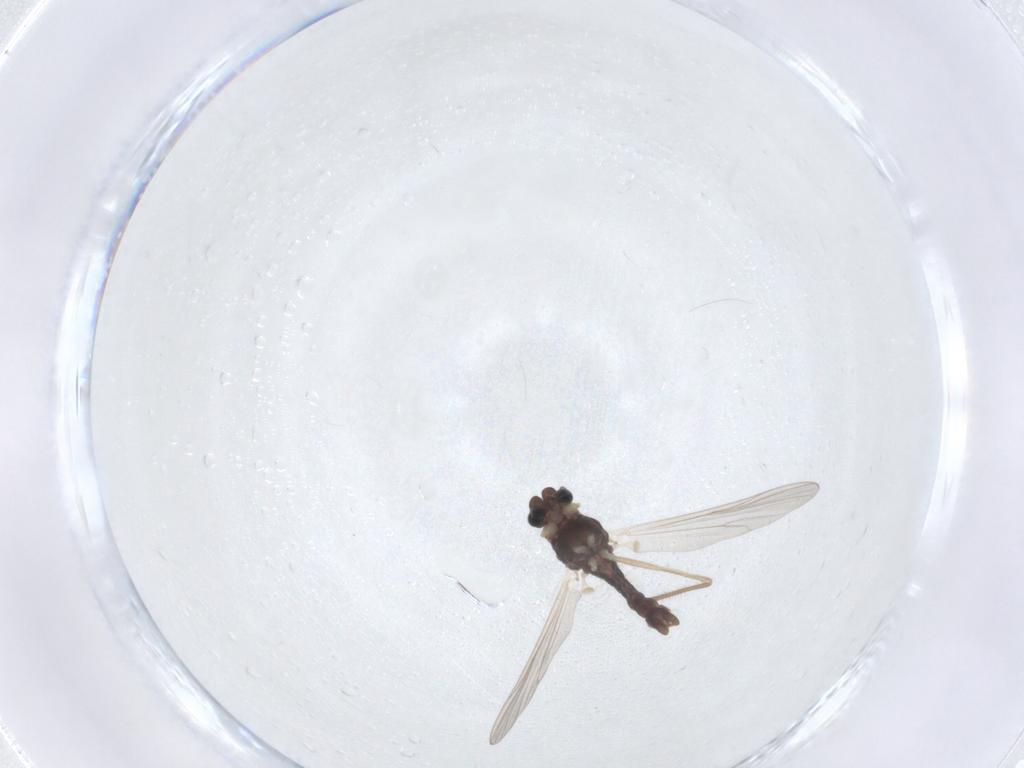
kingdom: Animalia
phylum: Arthropoda
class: Insecta
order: Diptera
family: Chironomidae
